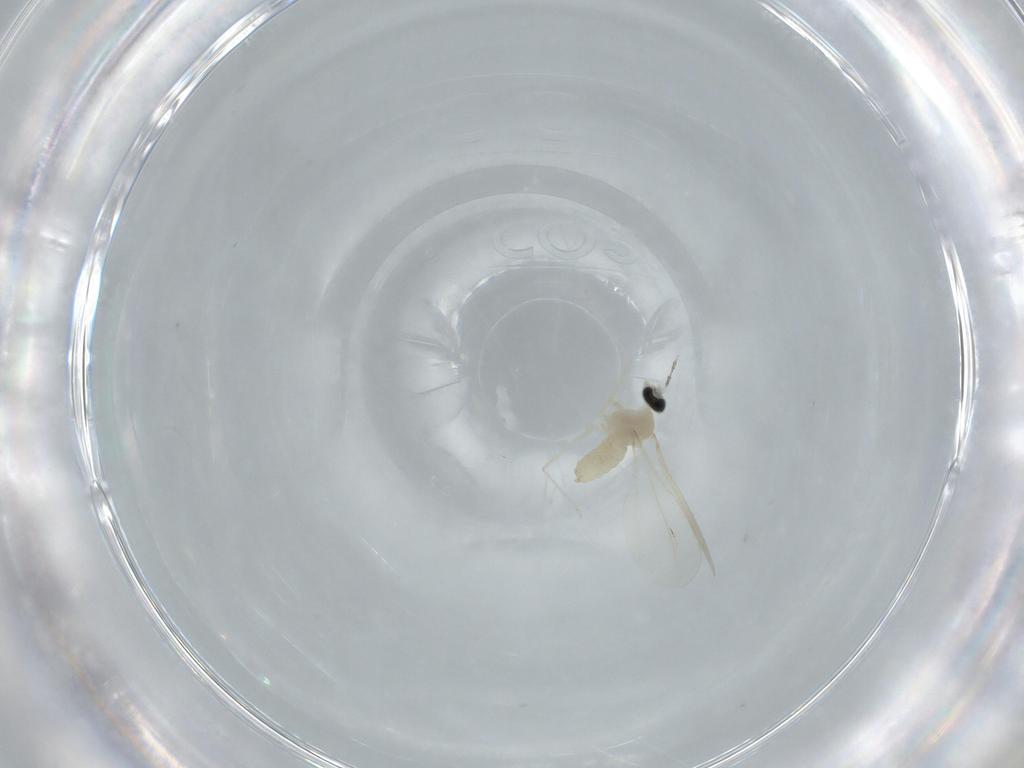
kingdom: Animalia
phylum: Arthropoda
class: Insecta
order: Diptera
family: Cecidomyiidae
